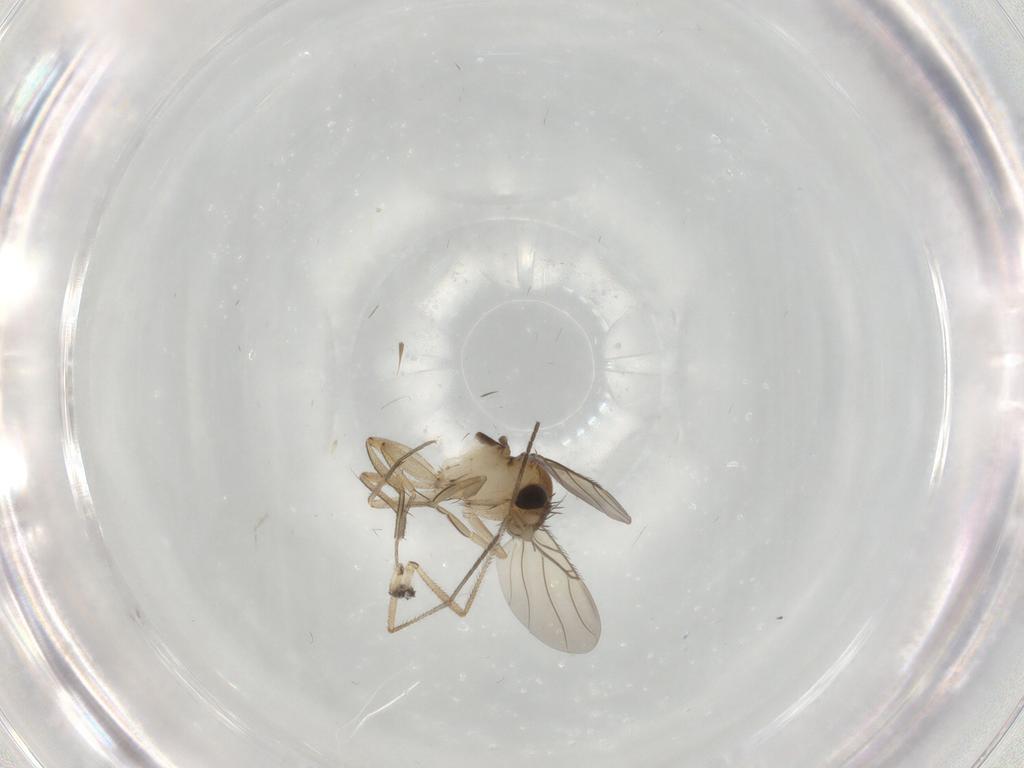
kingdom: Animalia
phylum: Arthropoda
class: Insecta
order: Diptera
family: Phoridae
